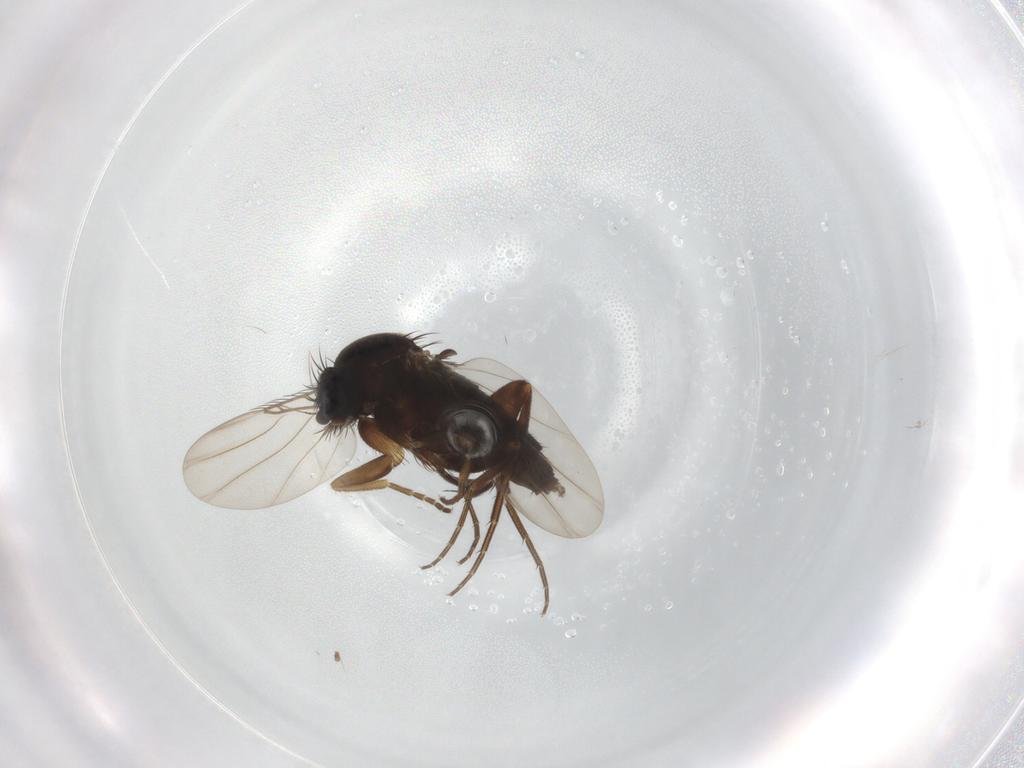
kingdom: Animalia
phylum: Arthropoda
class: Insecta
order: Diptera
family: Phoridae
